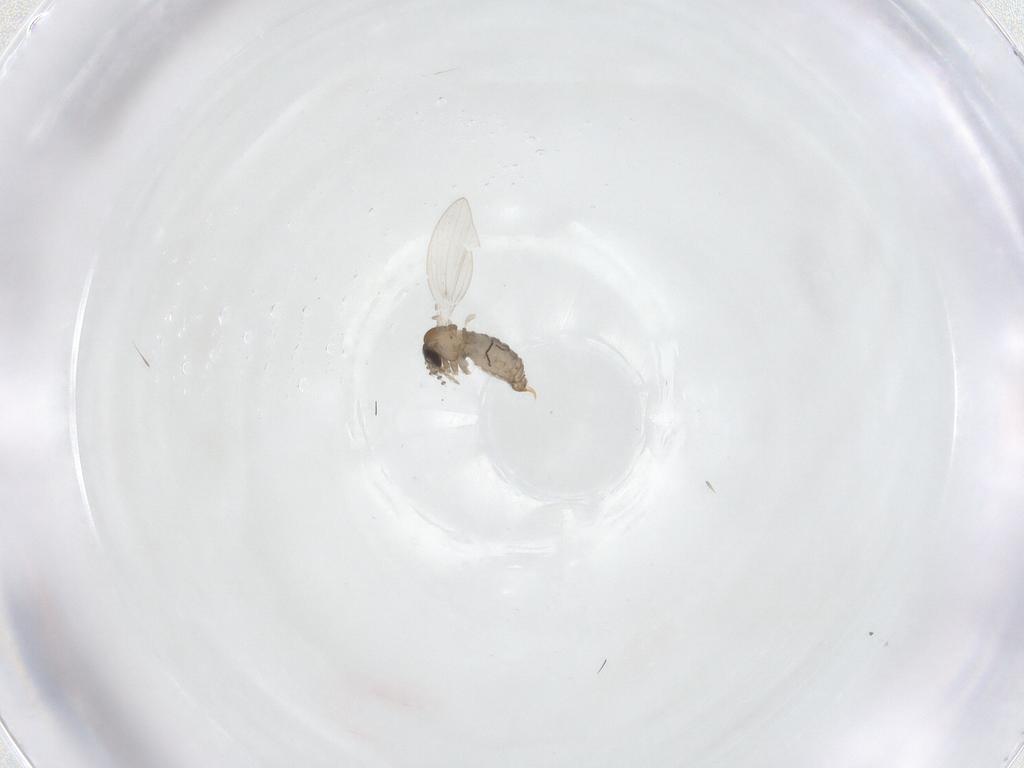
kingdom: Animalia
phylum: Arthropoda
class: Insecta
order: Diptera
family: Psychodidae
